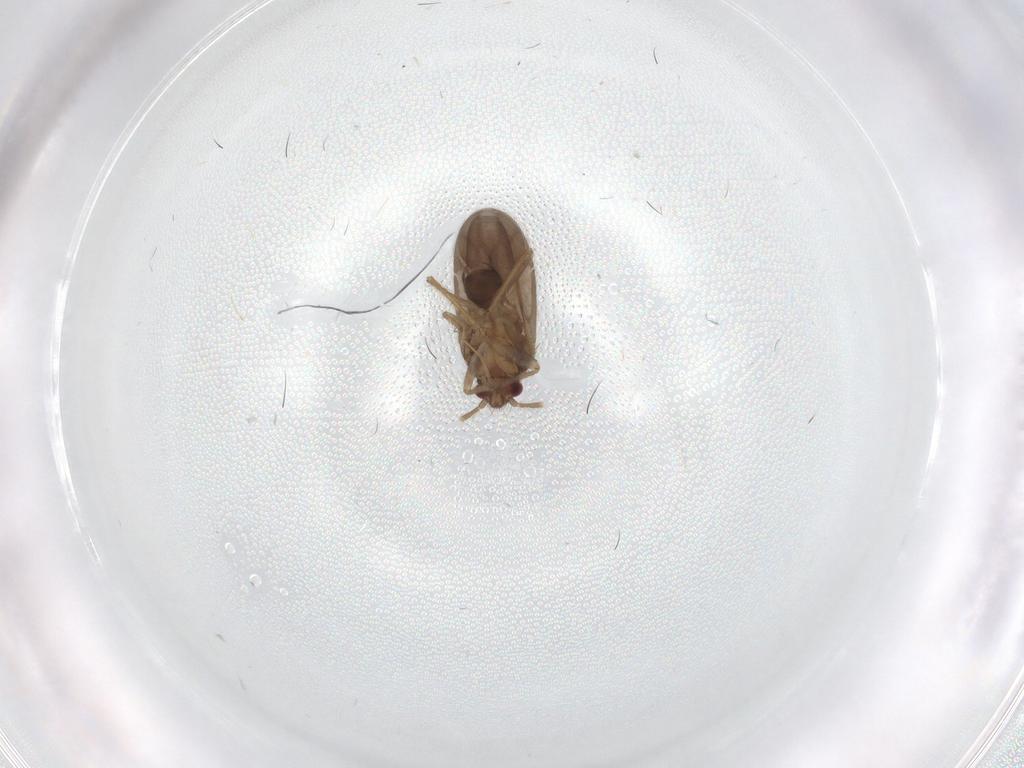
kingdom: Animalia
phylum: Arthropoda
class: Insecta
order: Hemiptera
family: Ceratocombidae
